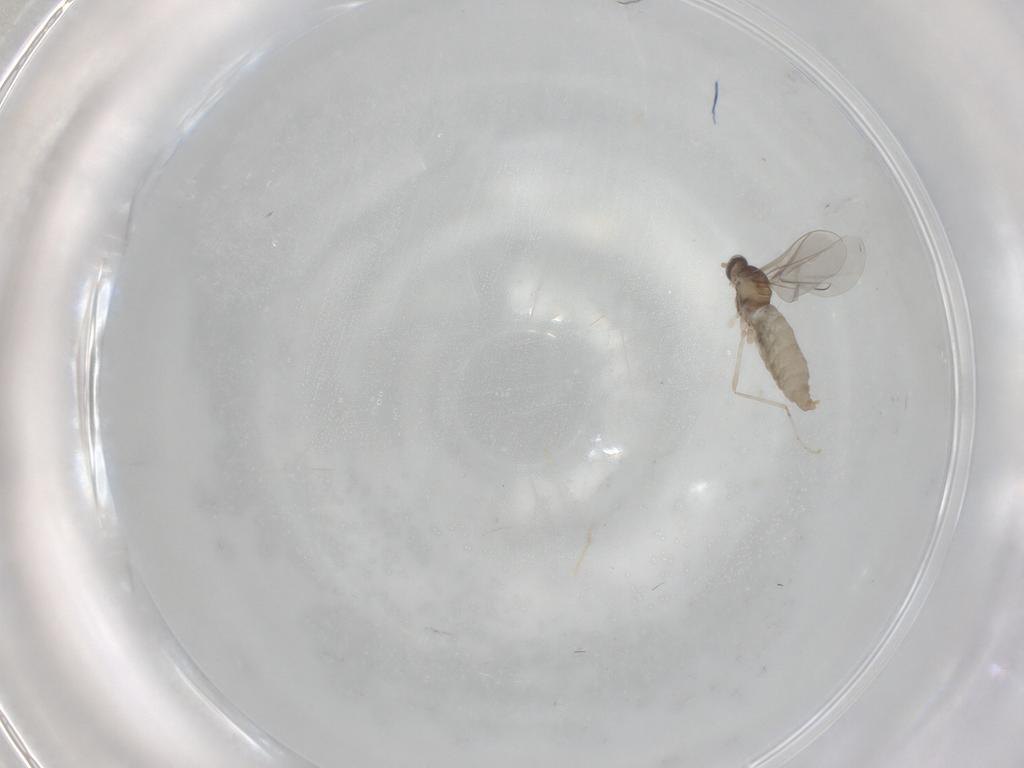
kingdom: Animalia
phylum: Arthropoda
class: Insecta
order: Diptera
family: Cecidomyiidae
